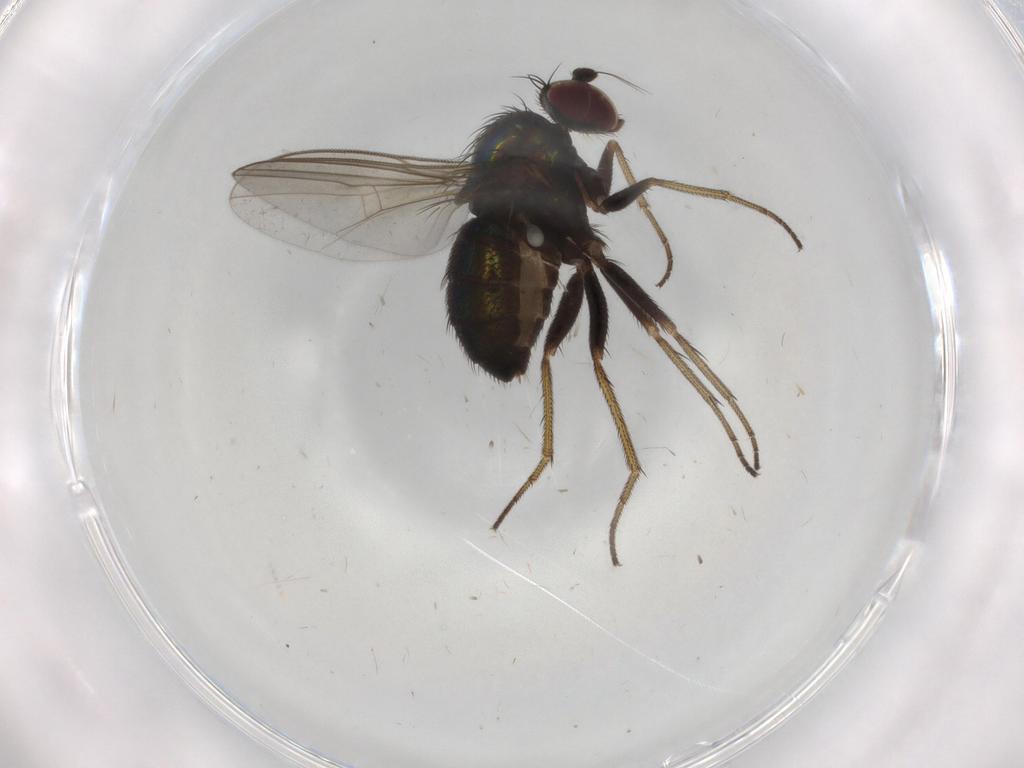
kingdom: Animalia
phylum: Arthropoda
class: Insecta
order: Diptera
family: Dolichopodidae
